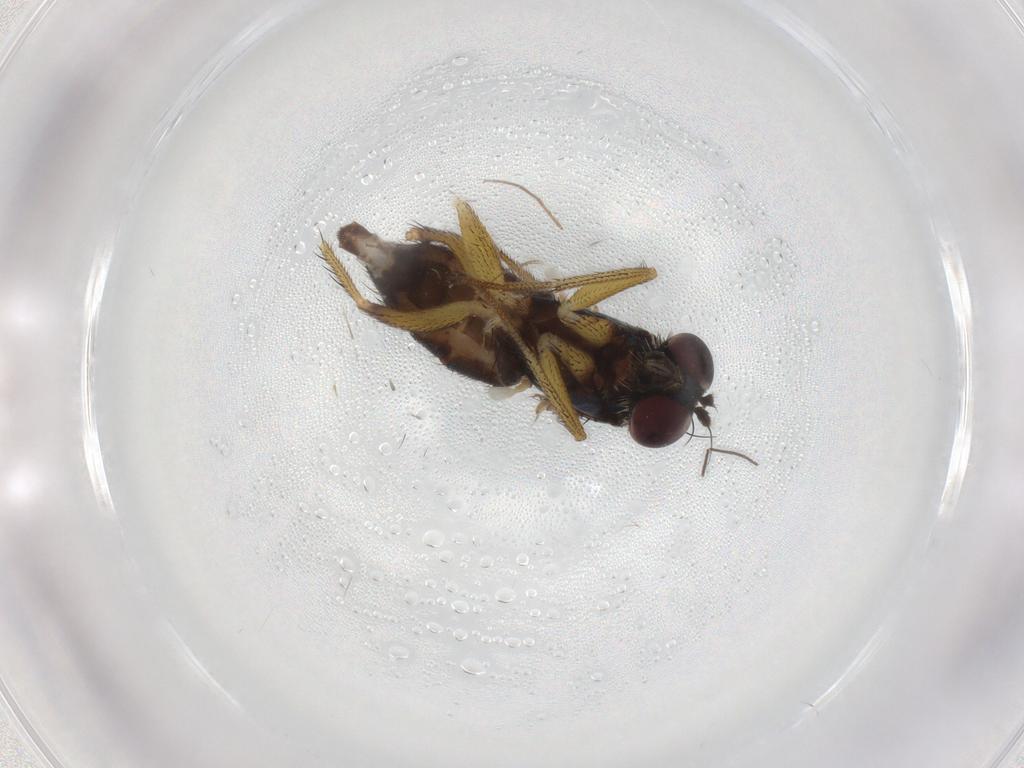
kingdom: Animalia
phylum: Arthropoda
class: Insecta
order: Diptera
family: Dolichopodidae
